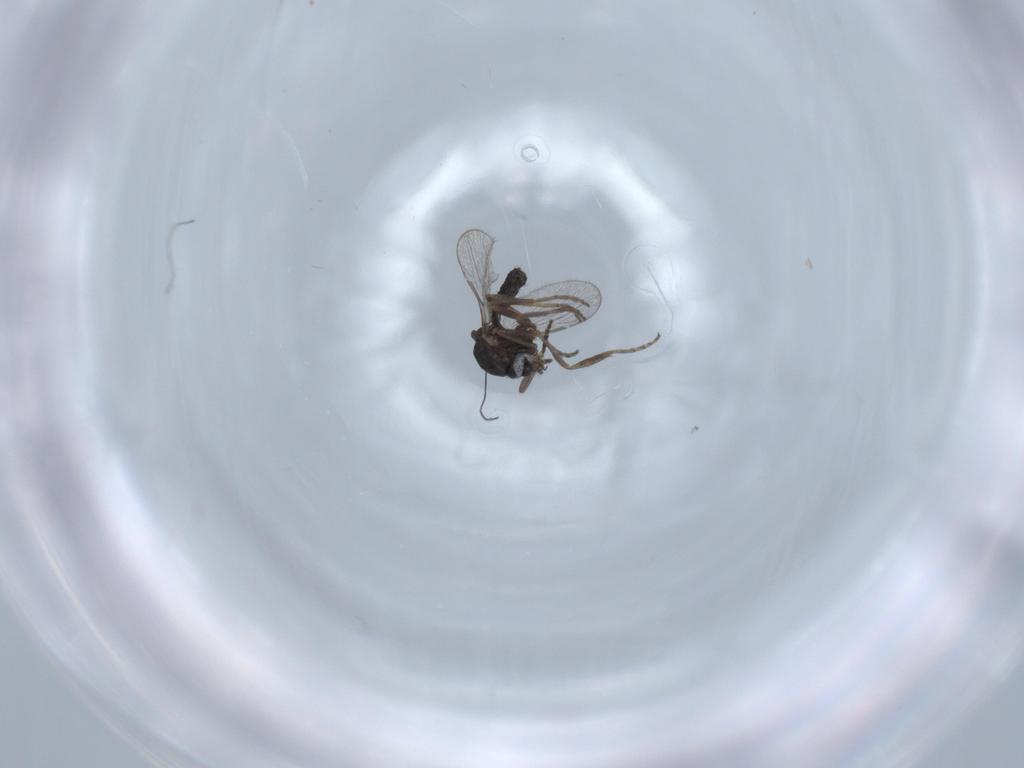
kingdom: Animalia
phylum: Arthropoda
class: Insecta
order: Diptera
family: Ceratopogonidae
